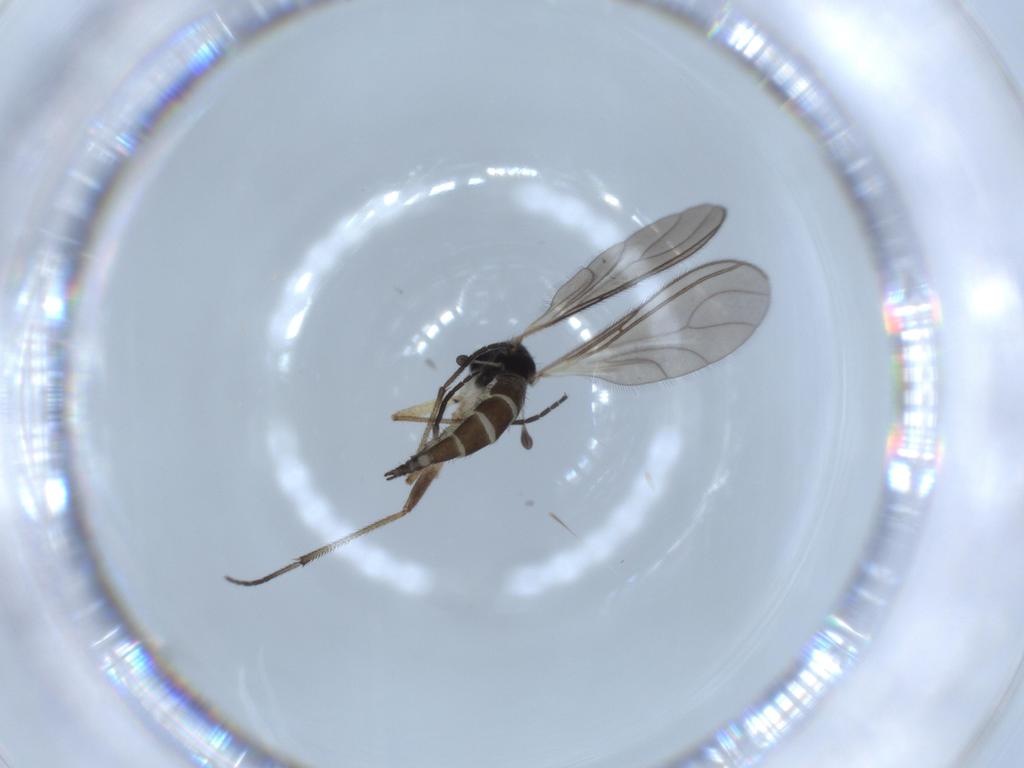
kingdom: Animalia
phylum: Arthropoda
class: Insecta
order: Diptera
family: Sciaridae
